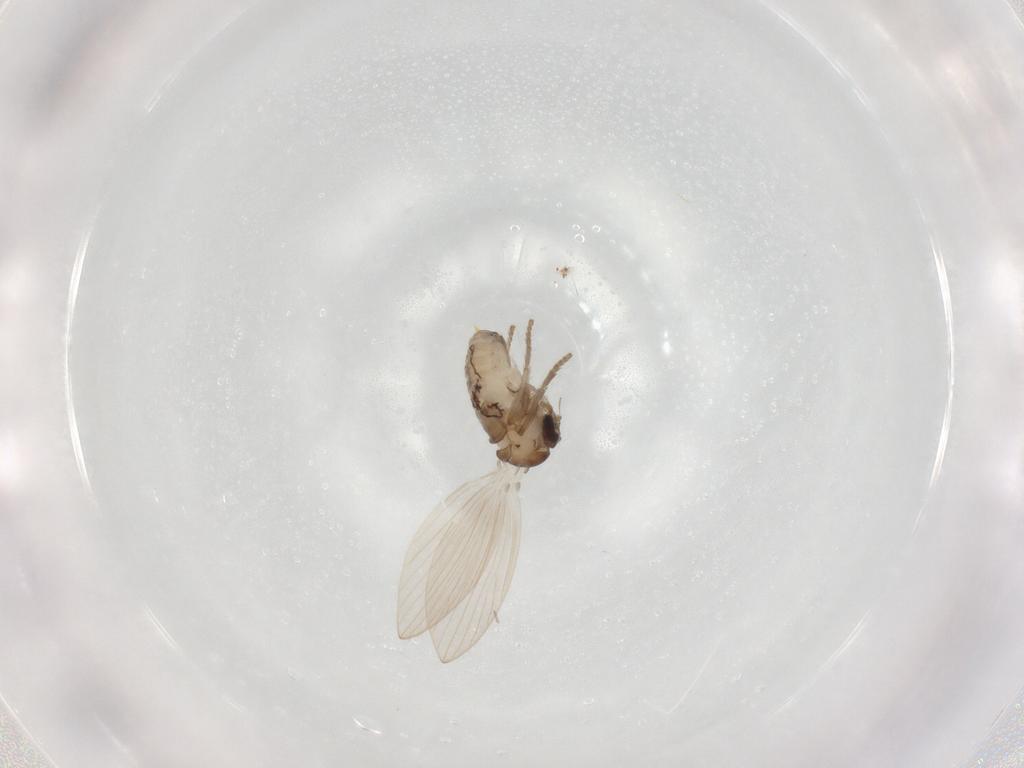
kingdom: Animalia
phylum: Arthropoda
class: Insecta
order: Diptera
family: Psychodidae
